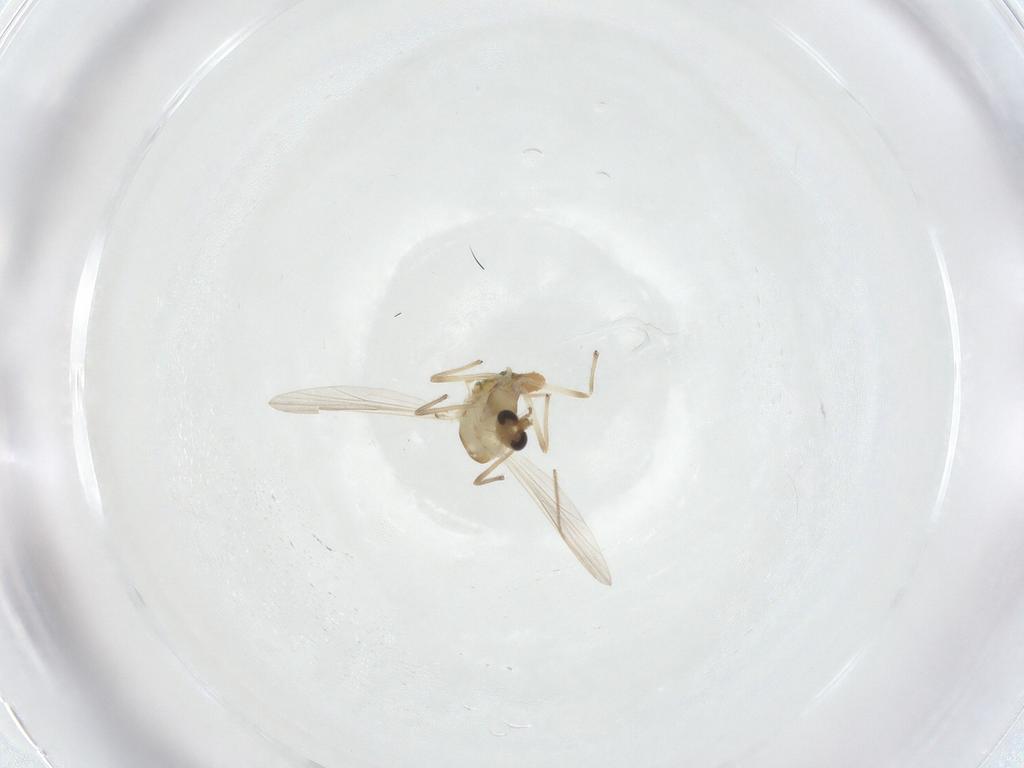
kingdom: Animalia
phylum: Arthropoda
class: Insecta
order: Diptera
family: Chironomidae
